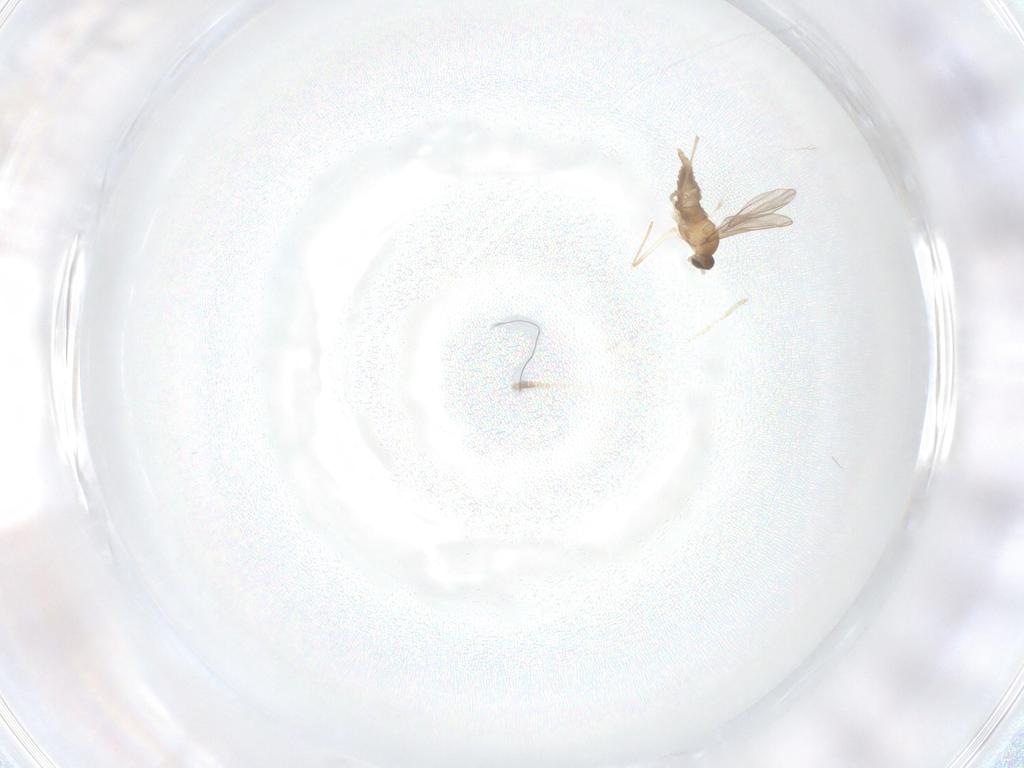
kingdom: Animalia
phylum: Arthropoda
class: Insecta
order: Diptera
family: Cecidomyiidae
